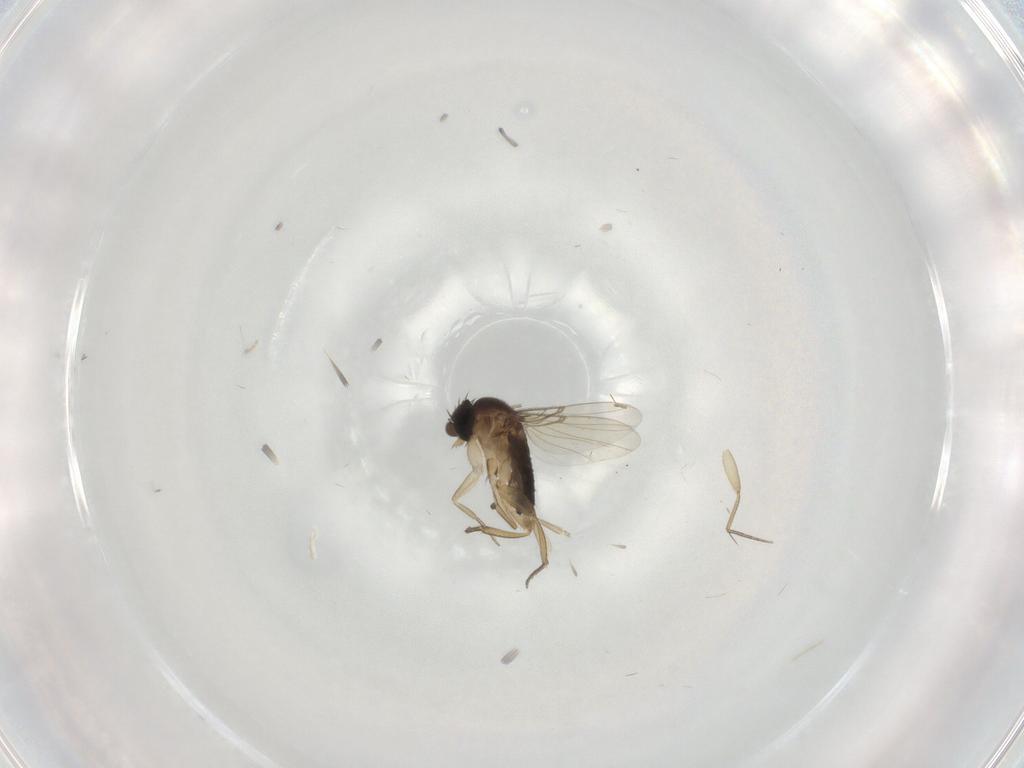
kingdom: Animalia
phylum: Arthropoda
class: Insecta
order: Diptera
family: Phoridae
